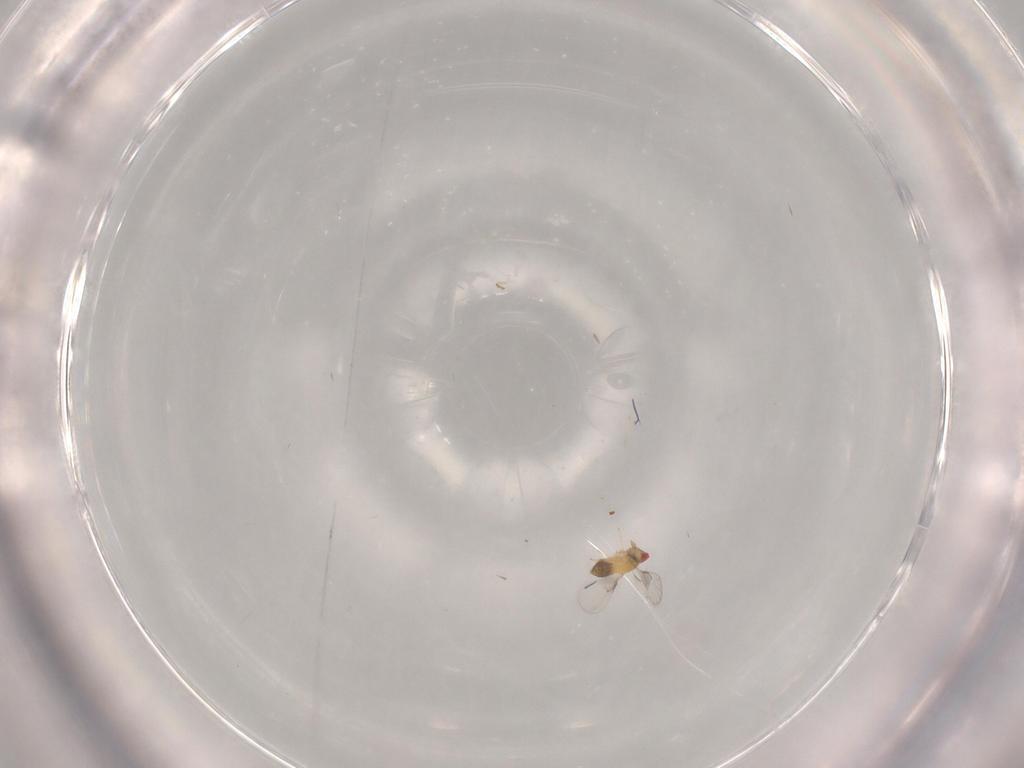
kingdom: Animalia
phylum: Arthropoda
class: Insecta
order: Hymenoptera
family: Trichogrammatidae
